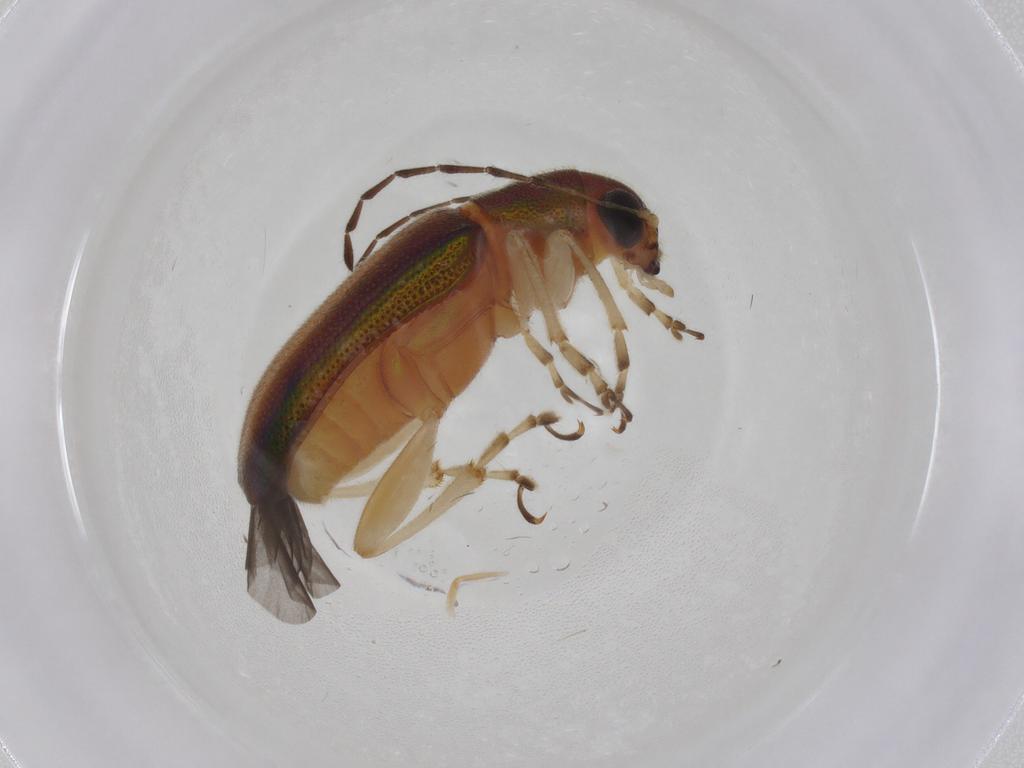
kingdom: Animalia
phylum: Arthropoda
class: Insecta
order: Coleoptera
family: Chrysomelidae
